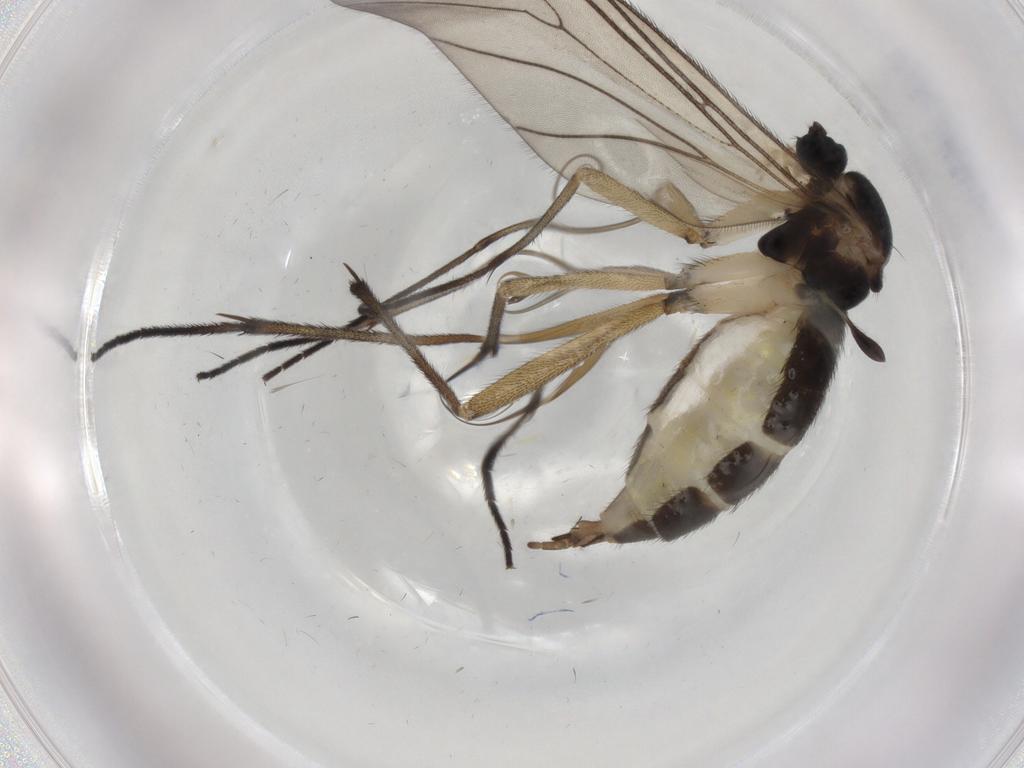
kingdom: Animalia
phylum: Arthropoda
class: Insecta
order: Diptera
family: Sciaridae
